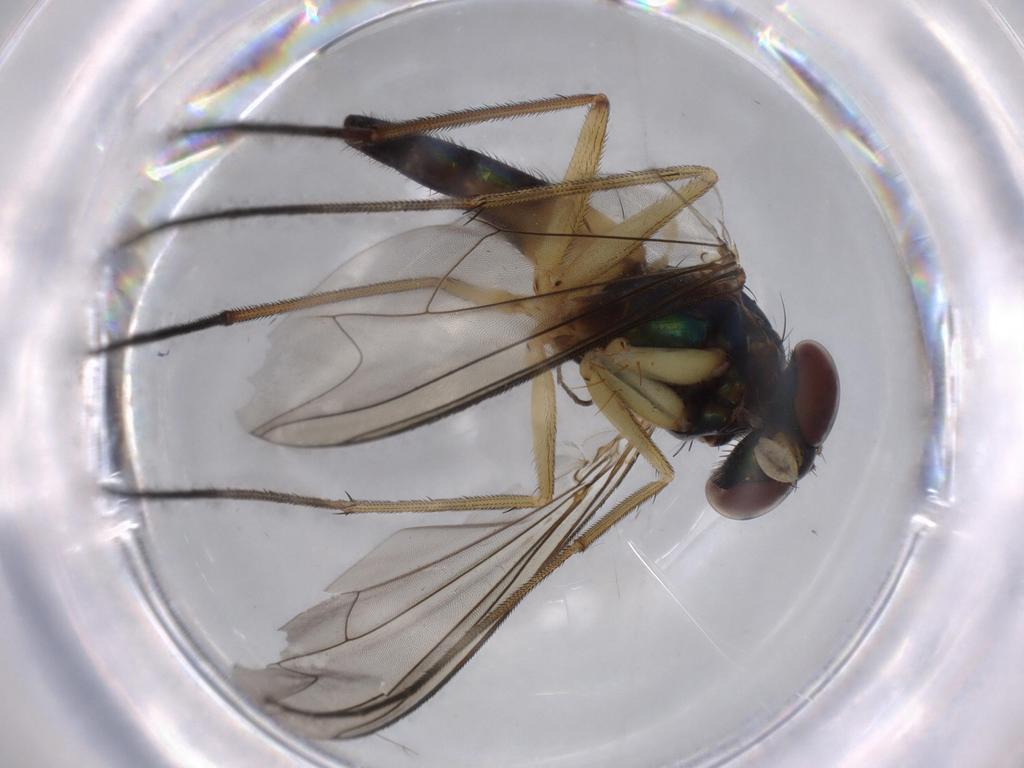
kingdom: Animalia
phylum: Arthropoda
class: Insecta
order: Diptera
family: Dolichopodidae
